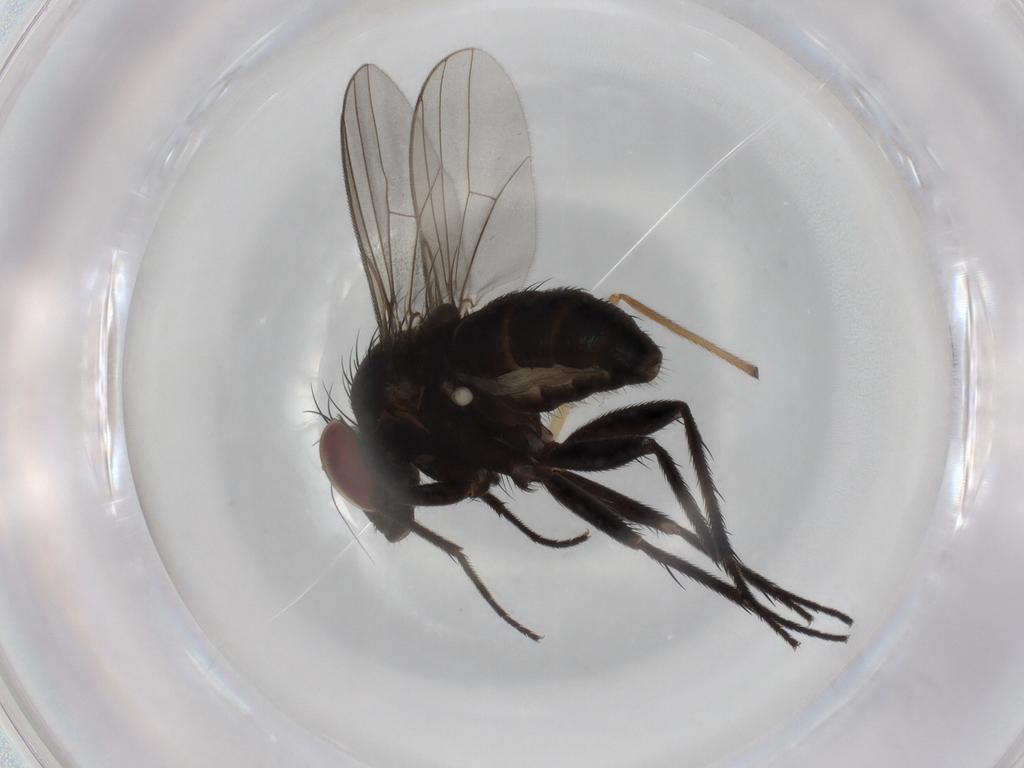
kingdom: Animalia
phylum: Arthropoda
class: Insecta
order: Diptera
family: Dolichopodidae
